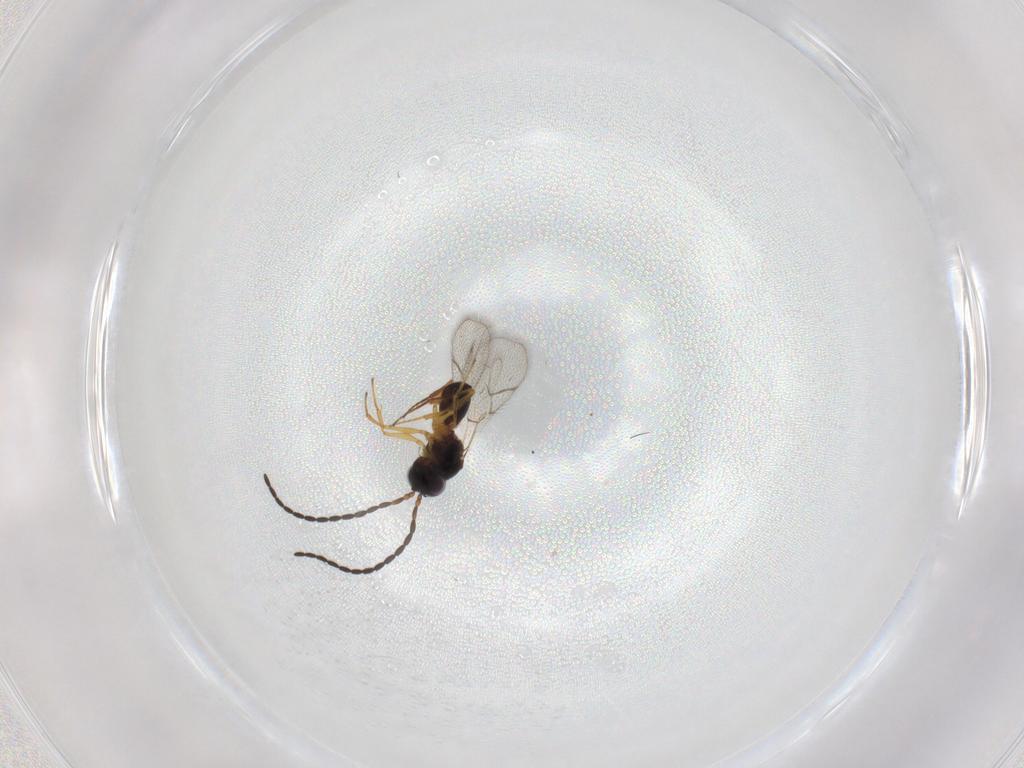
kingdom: Animalia
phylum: Arthropoda
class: Insecta
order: Hymenoptera
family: Figitidae
